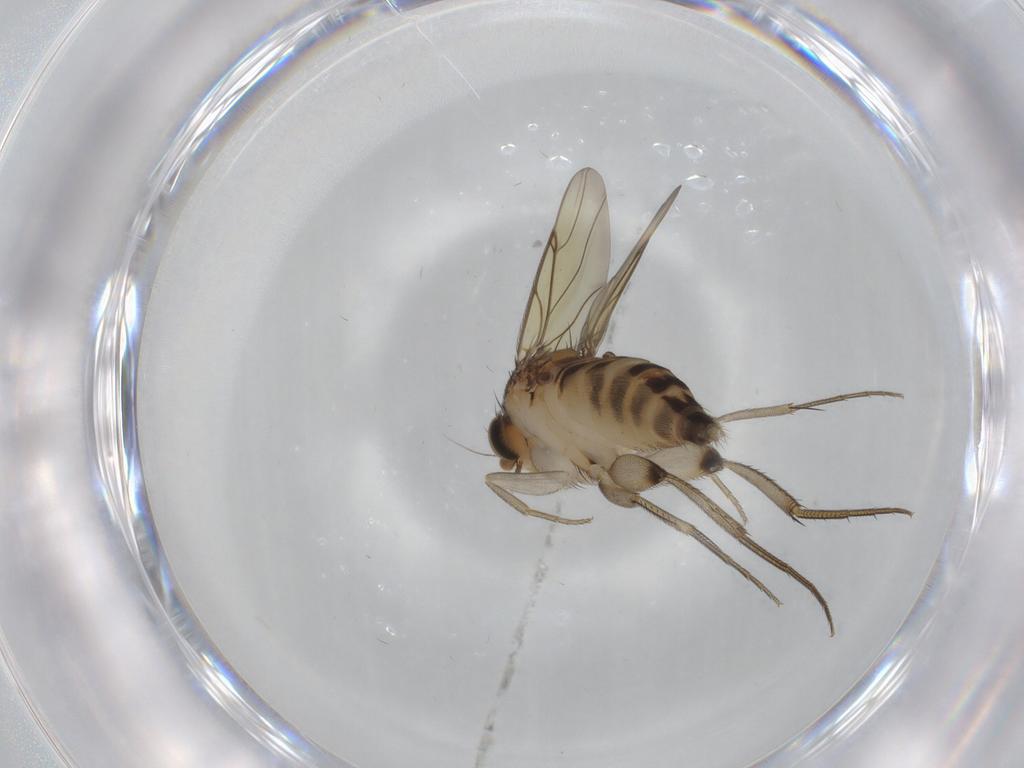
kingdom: Animalia
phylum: Arthropoda
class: Insecta
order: Diptera
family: Phoridae
